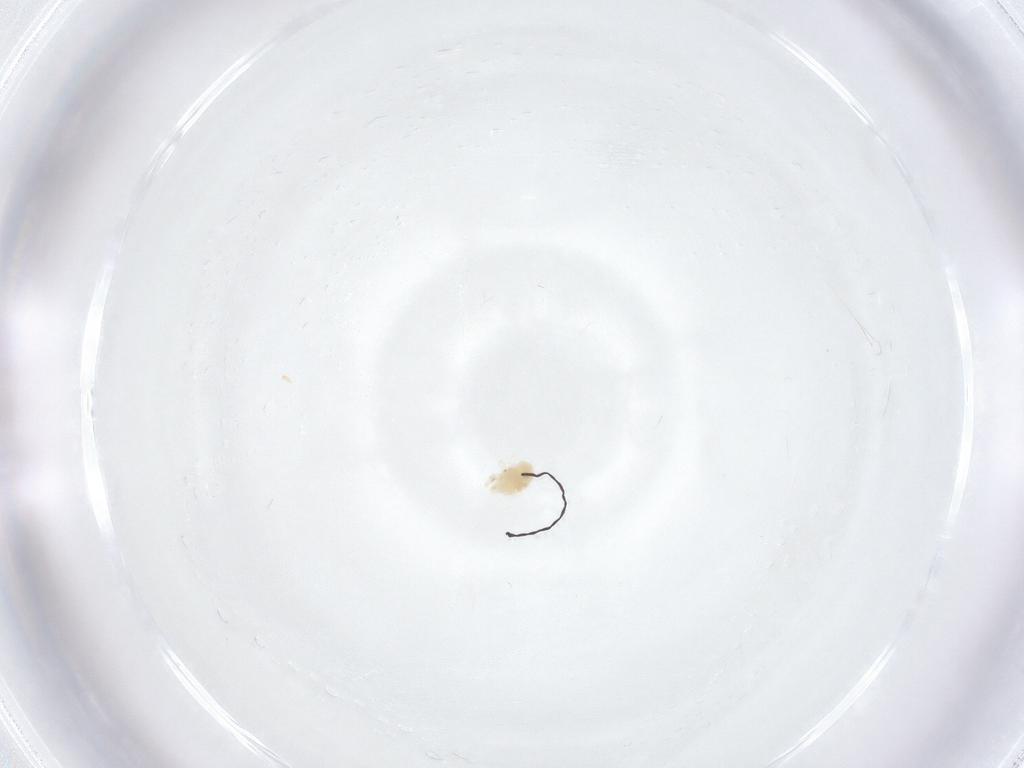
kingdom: Animalia
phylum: Arthropoda
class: Arachnida
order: Trombidiformes
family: Tetranychidae
